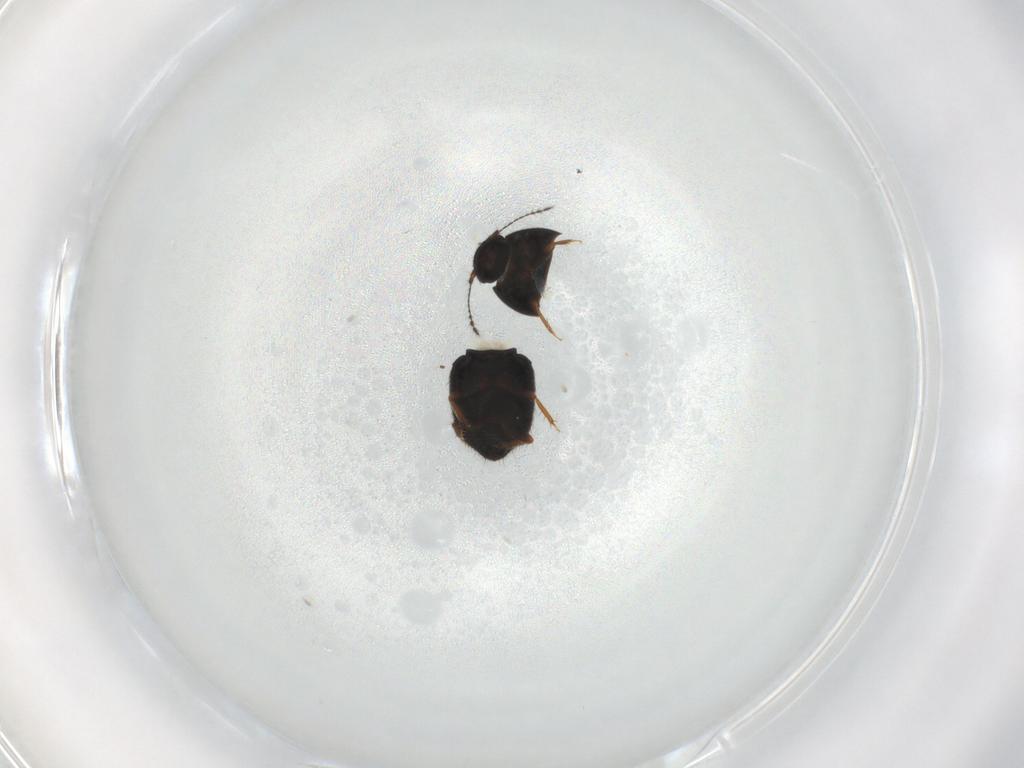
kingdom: Animalia
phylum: Arthropoda
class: Insecta
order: Coleoptera
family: Ptiliidae
